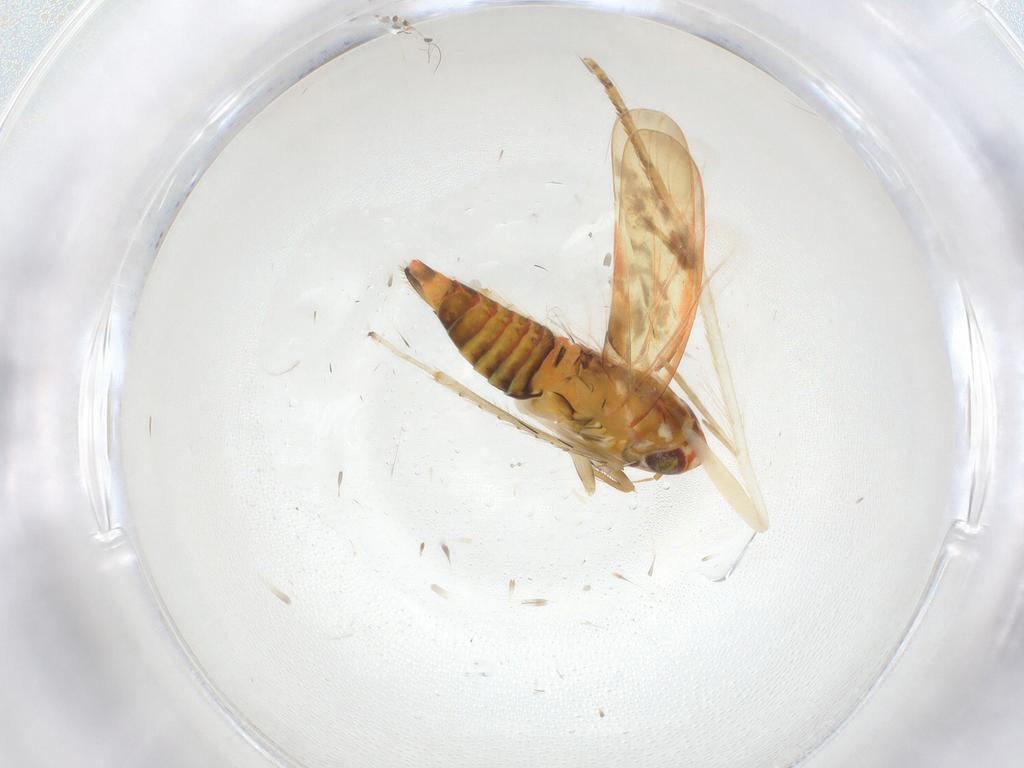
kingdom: Animalia
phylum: Arthropoda
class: Insecta
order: Hemiptera
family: Cicadellidae
